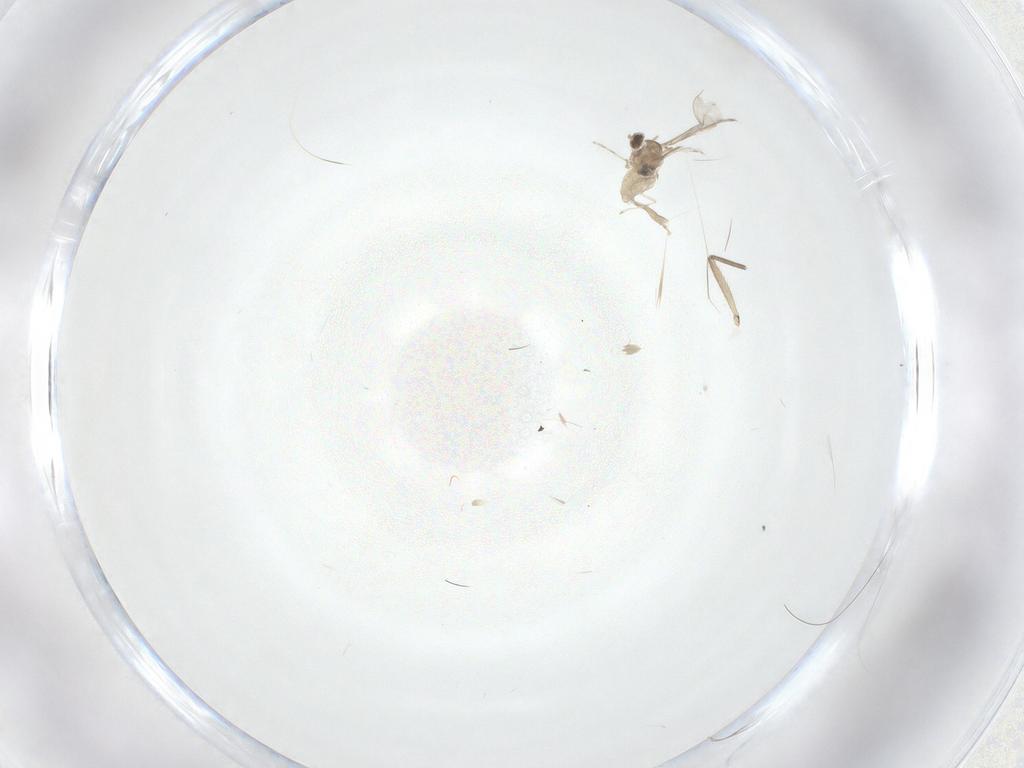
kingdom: Animalia
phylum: Arthropoda
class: Insecta
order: Diptera
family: Cecidomyiidae
